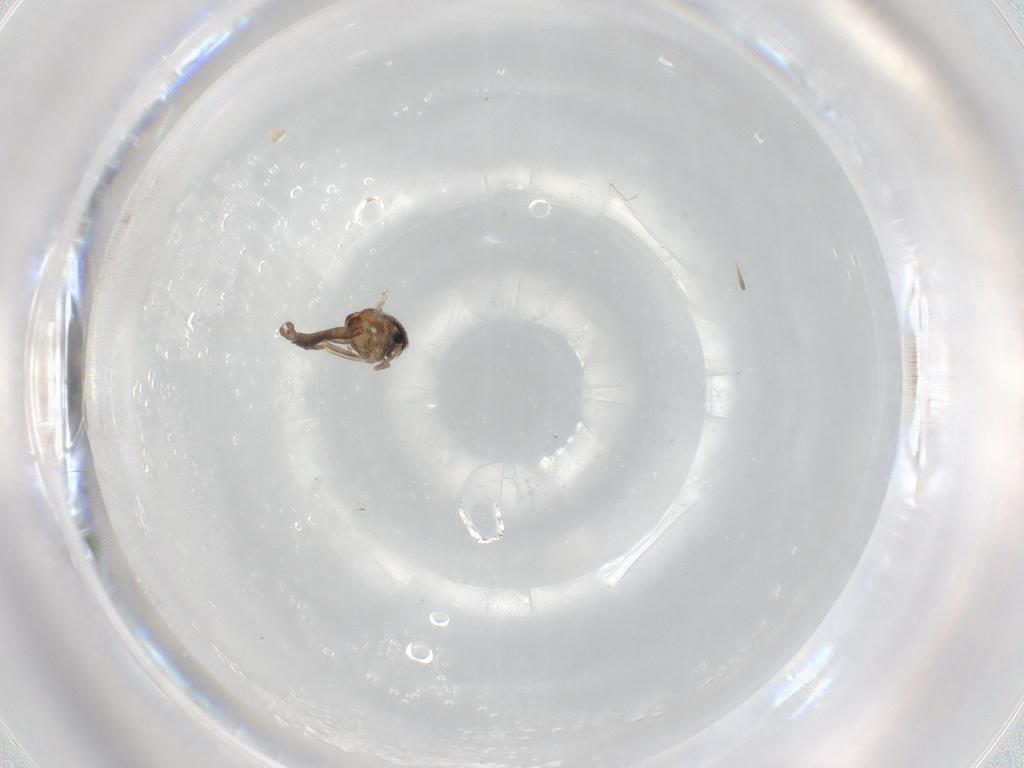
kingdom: Animalia
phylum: Arthropoda
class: Insecta
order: Diptera
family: Ceratopogonidae
